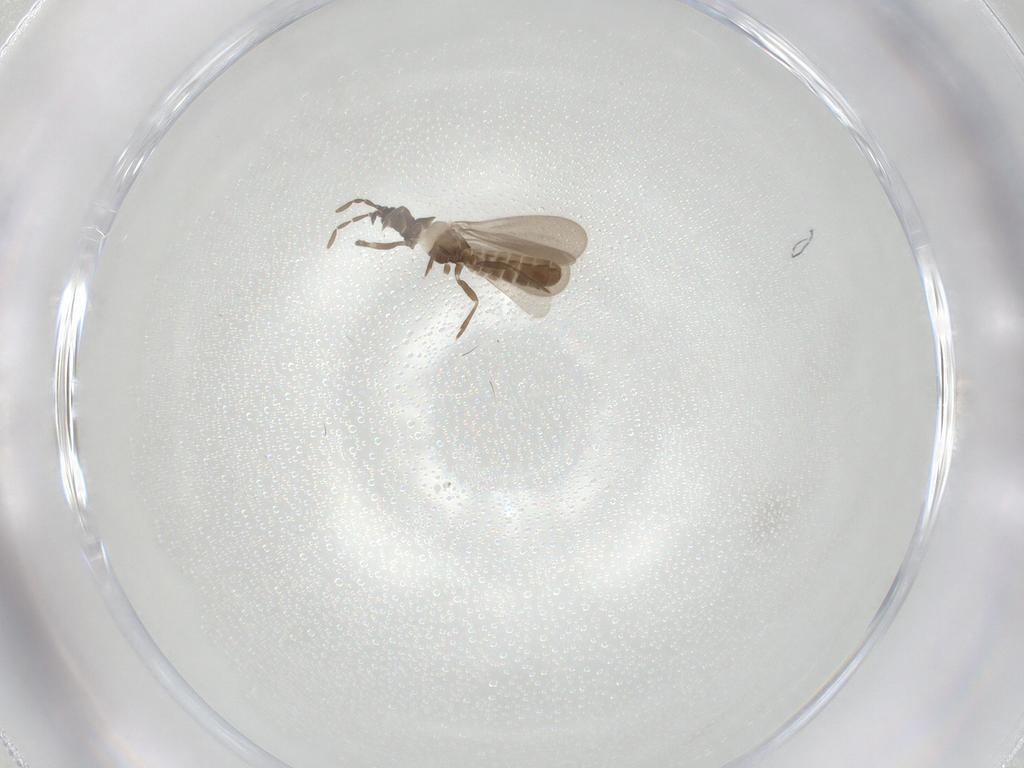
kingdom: Animalia
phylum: Arthropoda
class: Insecta
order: Hemiptera
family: Enicocephalidae
